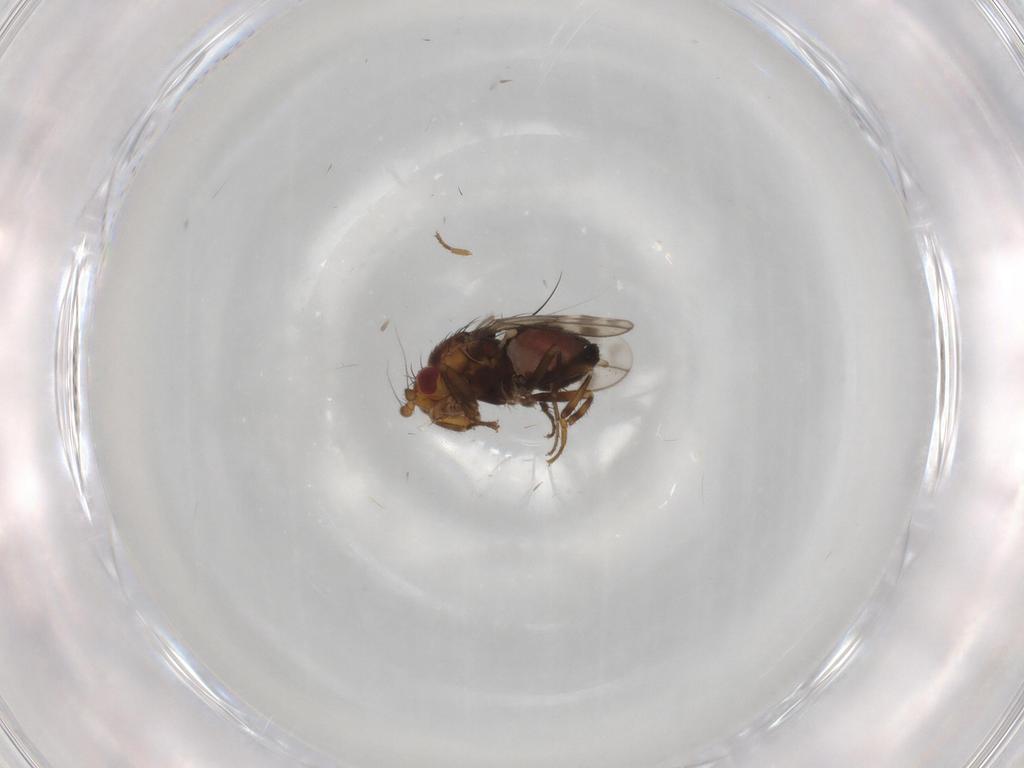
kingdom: Animalia
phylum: Arthropoda
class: Insecta
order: Diptera
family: Sphaeroceridae
